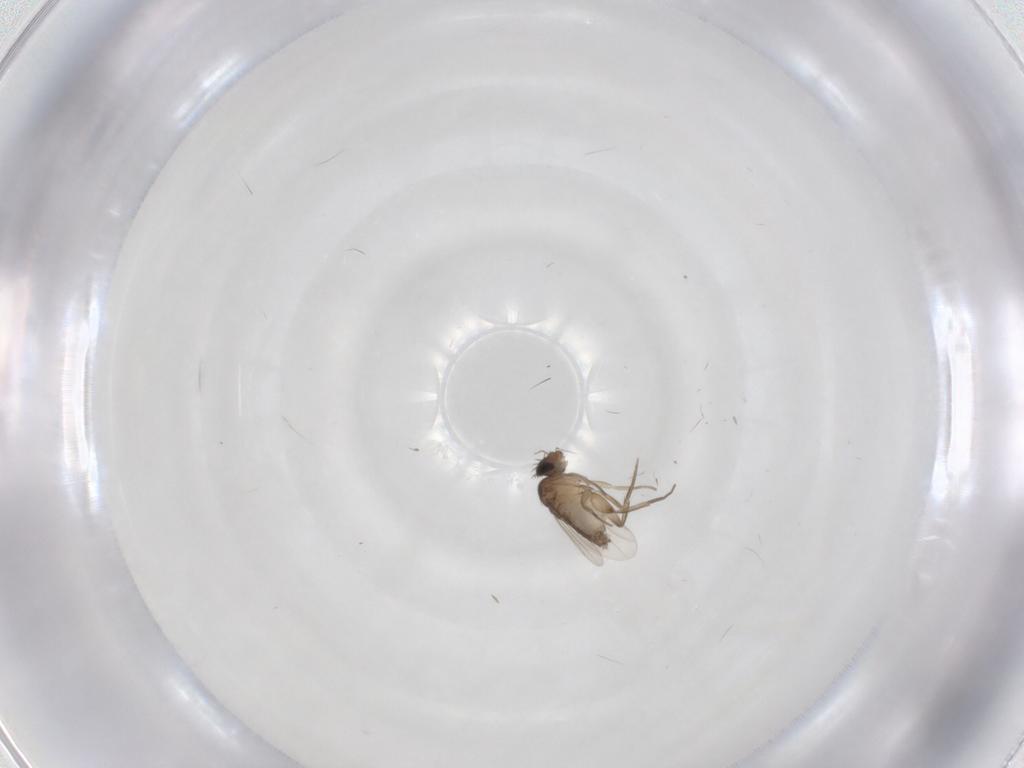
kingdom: Animalia
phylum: Arthropoda
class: Insecta
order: Diptera
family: Phoridae
